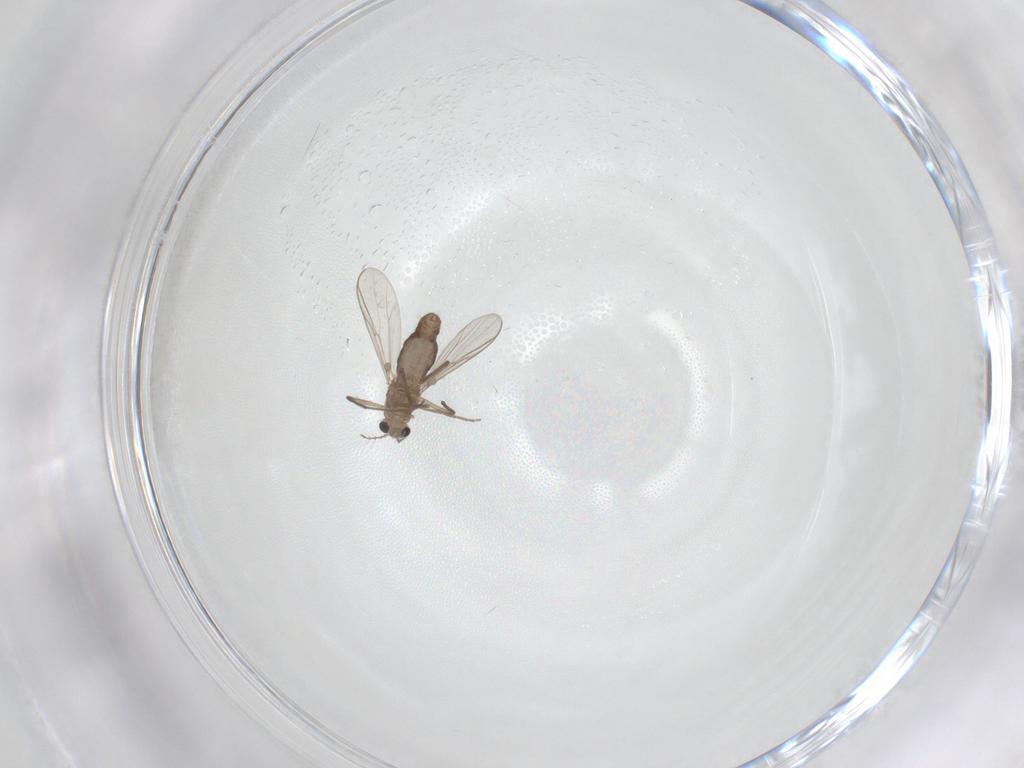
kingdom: Animalia
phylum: Arthropoda
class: Insecta
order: Diptera
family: Chironomidae
